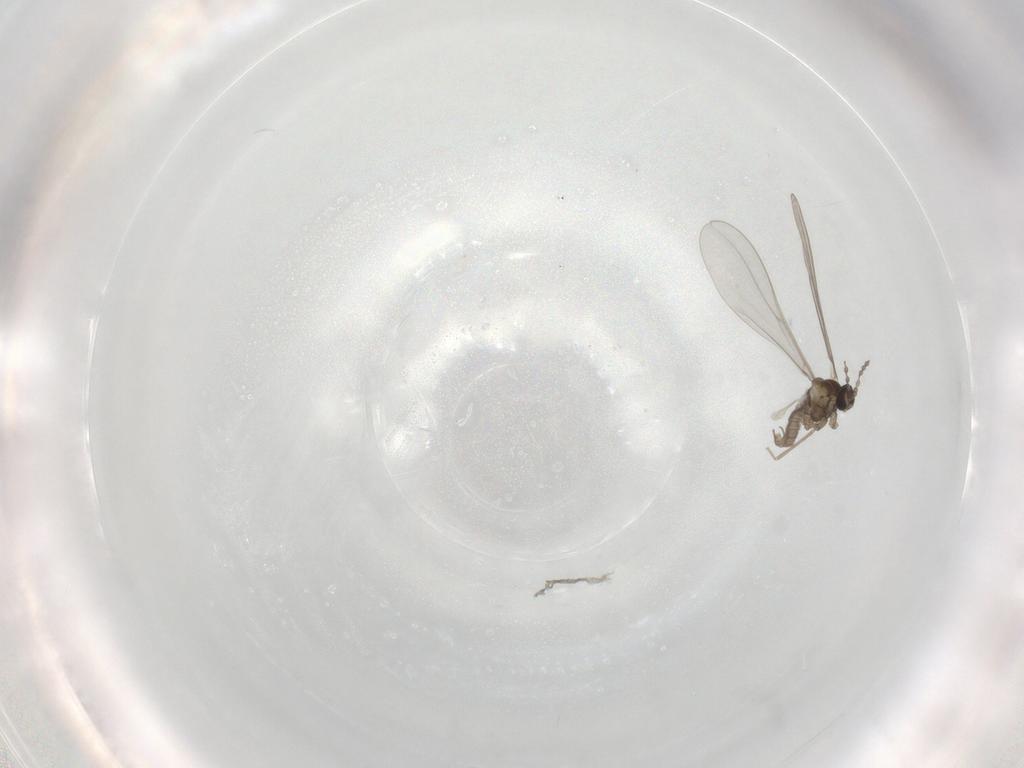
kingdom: Animalia
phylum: Arthropoda
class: Insecta
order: Diptera
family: Cecidomyiidae
